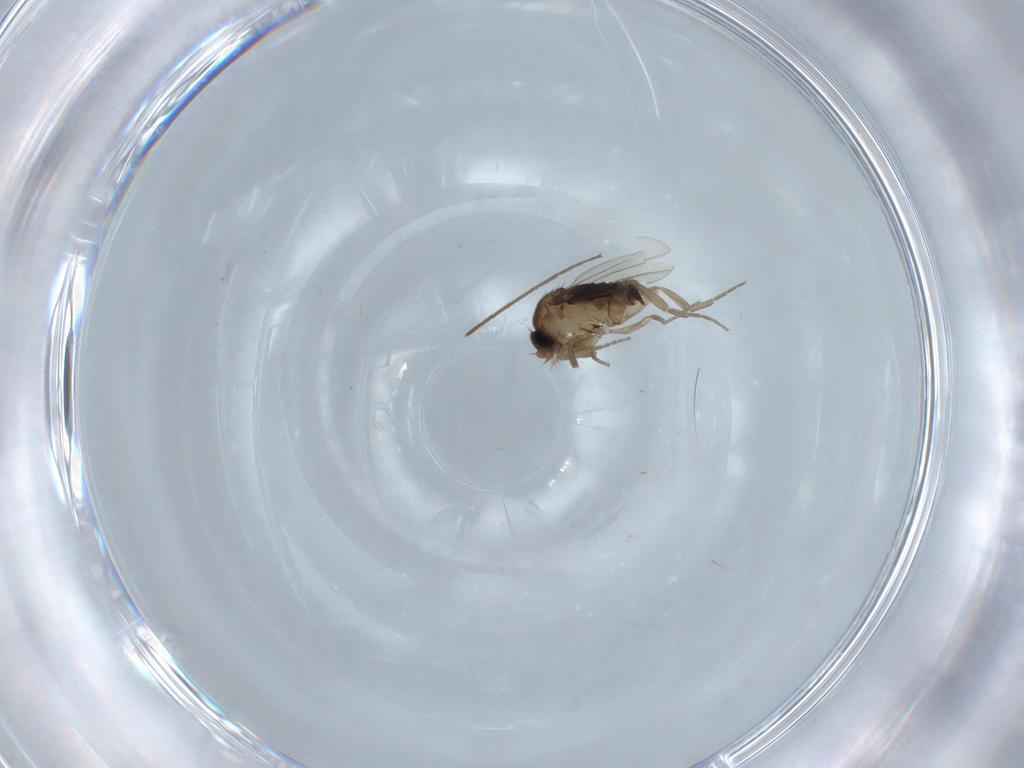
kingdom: Animalia
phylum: Arthropoda
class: Insecta
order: Diptera
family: Phoridae
